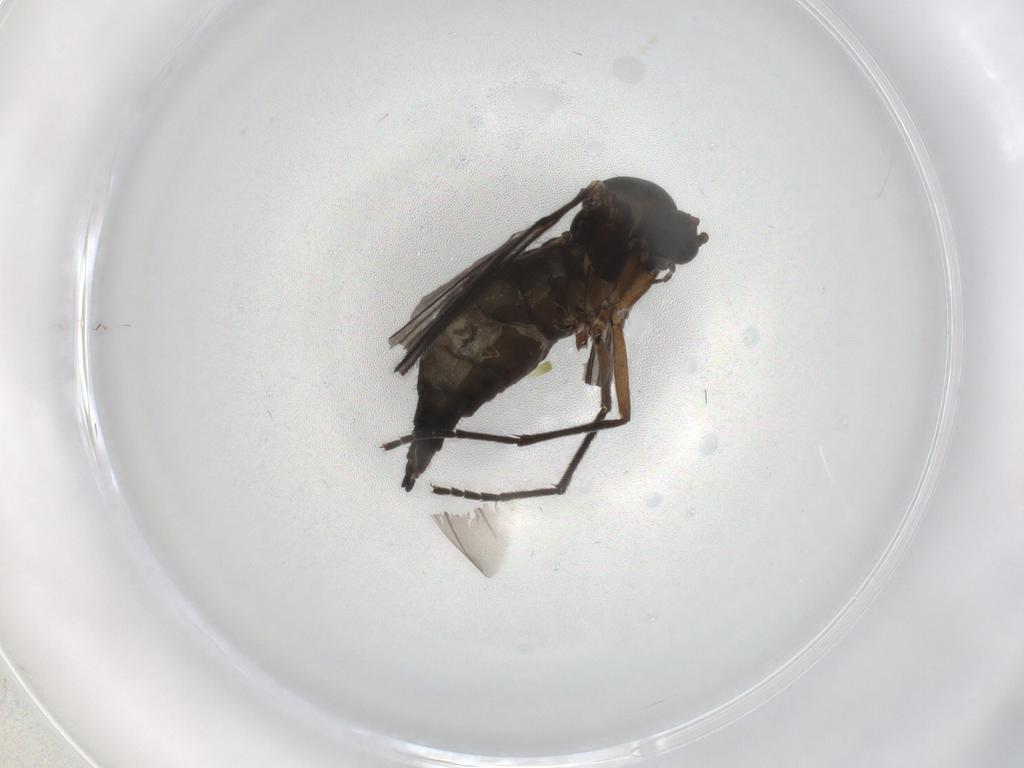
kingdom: Animalia
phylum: Arthropoda
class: Insecta
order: Diptera
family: Sciaridae
